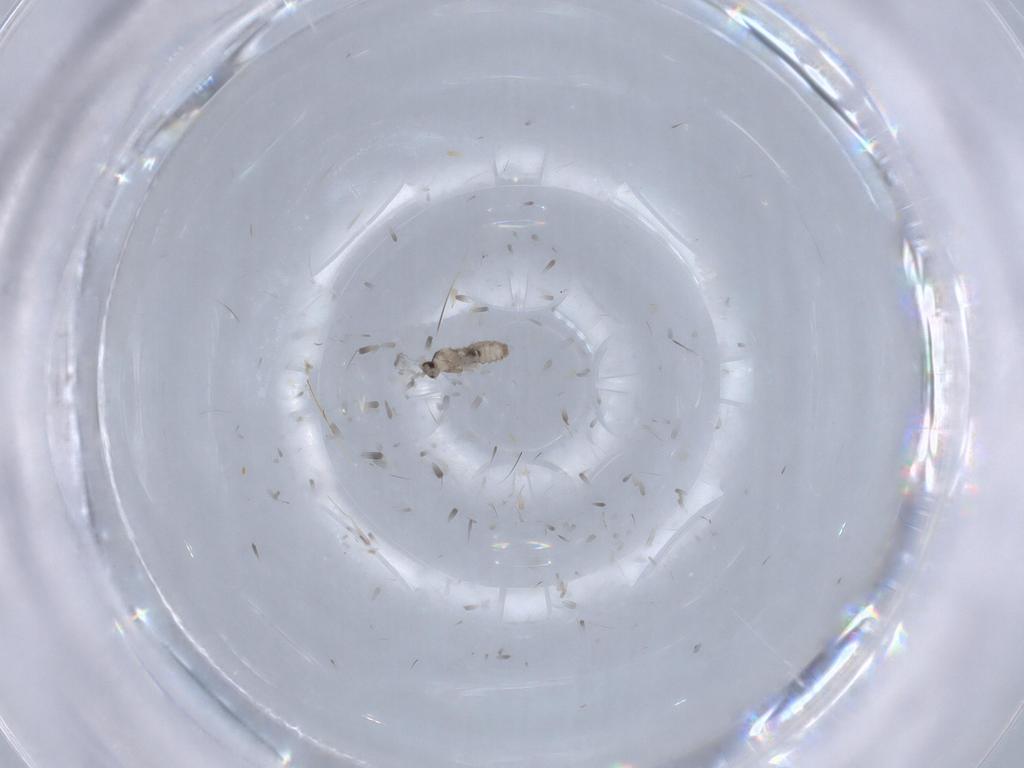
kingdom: Animalia
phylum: Arthropoda
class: Insecta
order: Diptera
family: Cecidomyiidae
